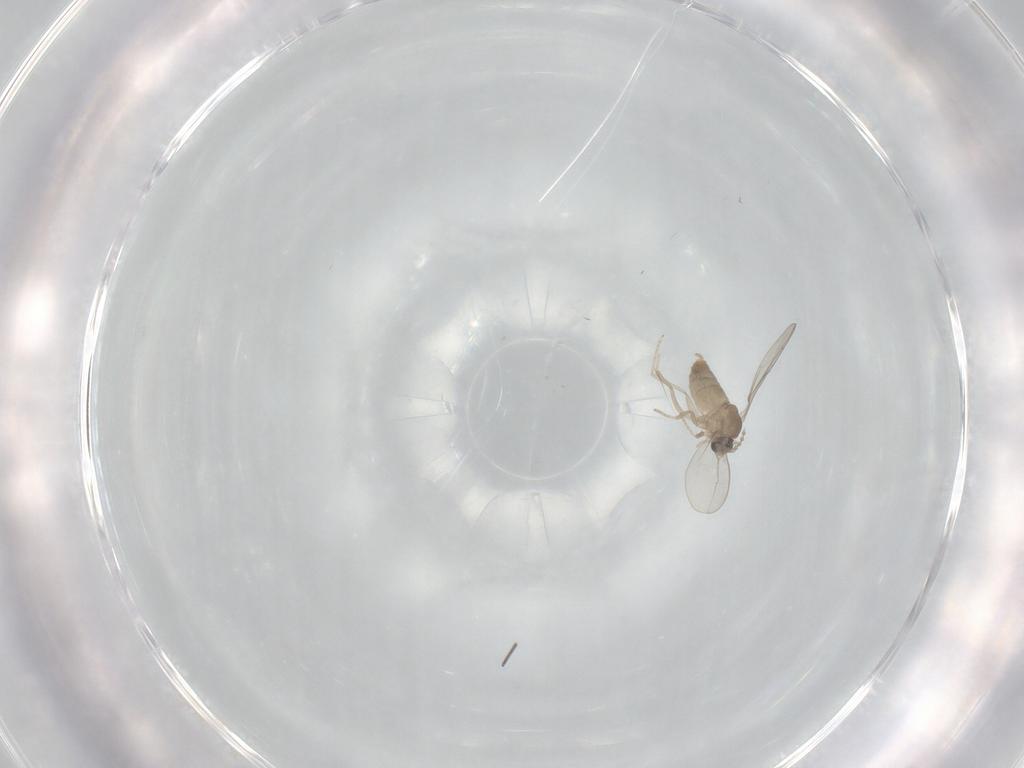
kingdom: Animalia
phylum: Arthropoda
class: Insecta
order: Diptera
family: Cecidomyiidae
